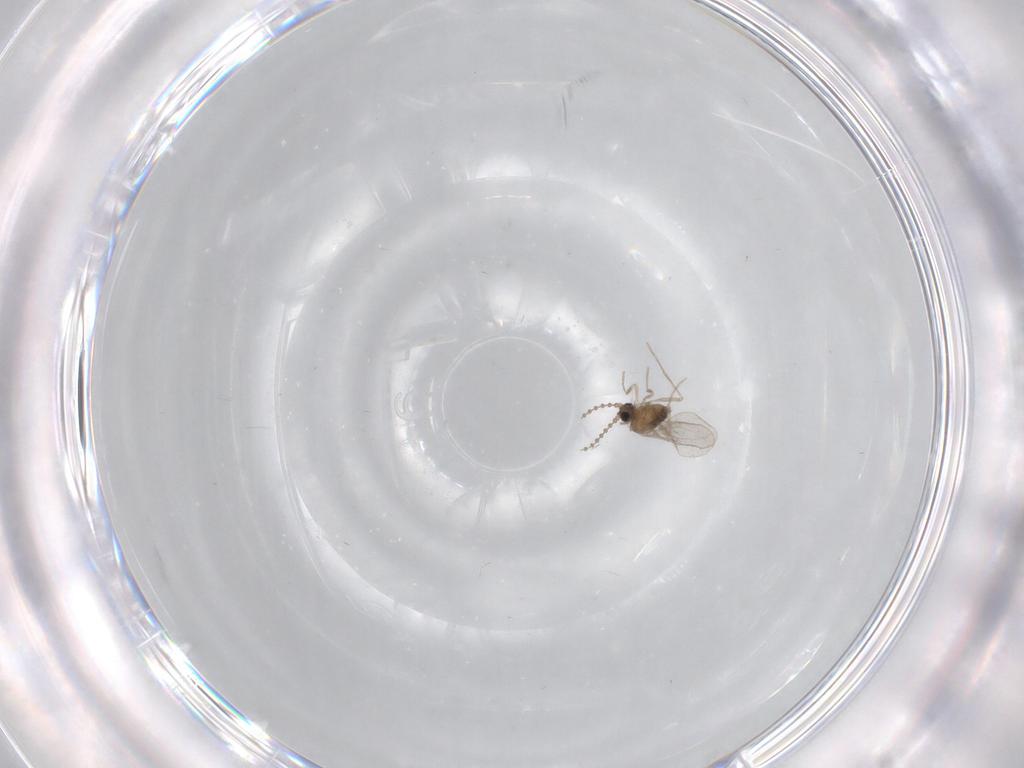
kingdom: Animalia
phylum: Arthropoda
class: Insecta
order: Diptera
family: Cecidomyiidae
